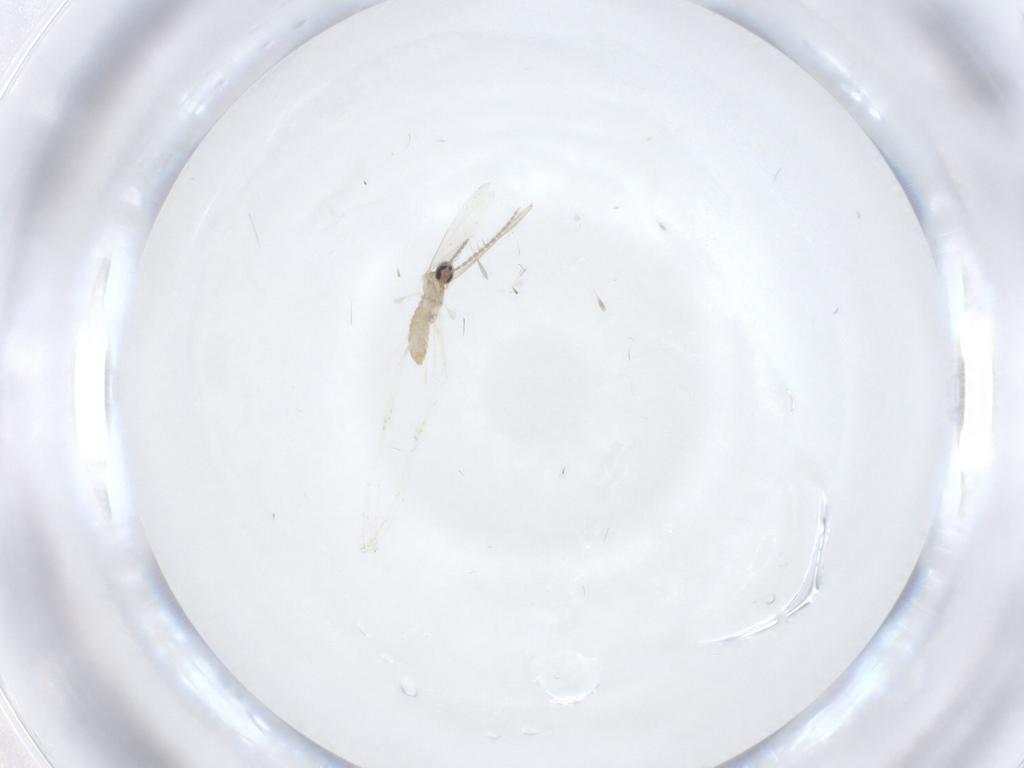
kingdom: Animalia
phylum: Arthropoda
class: Insecta
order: Diptera
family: Cecidomyiidae
